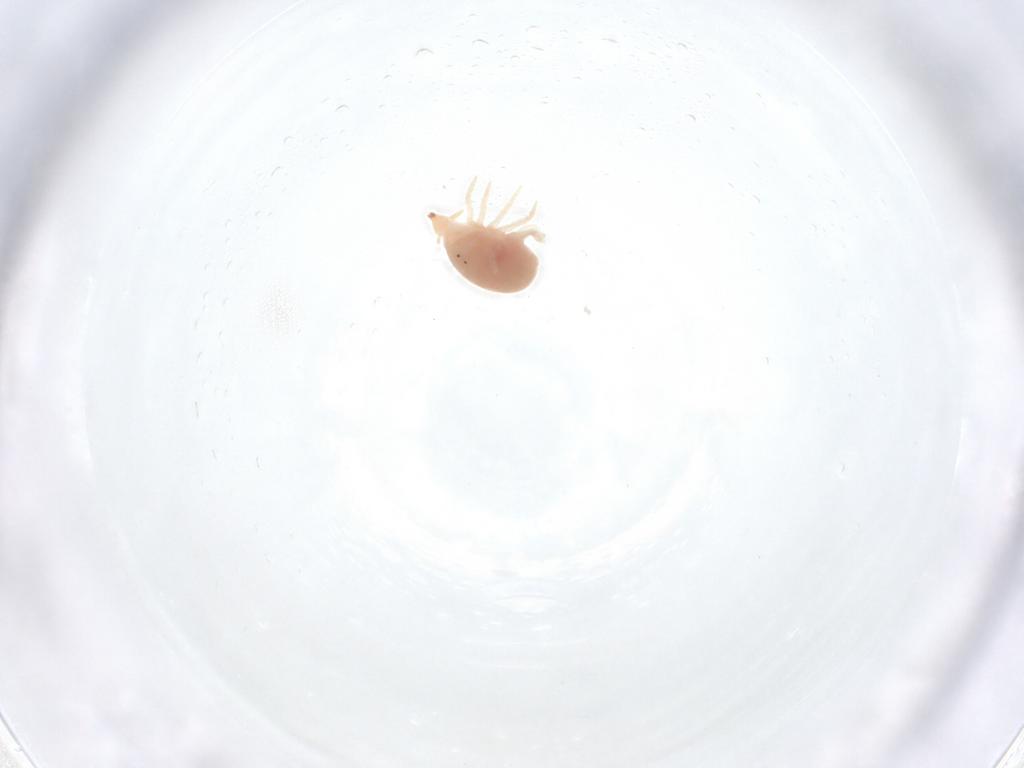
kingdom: Animalia
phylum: Arthropoda
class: Arachnida
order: Trombidiformes
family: Bdellidae
